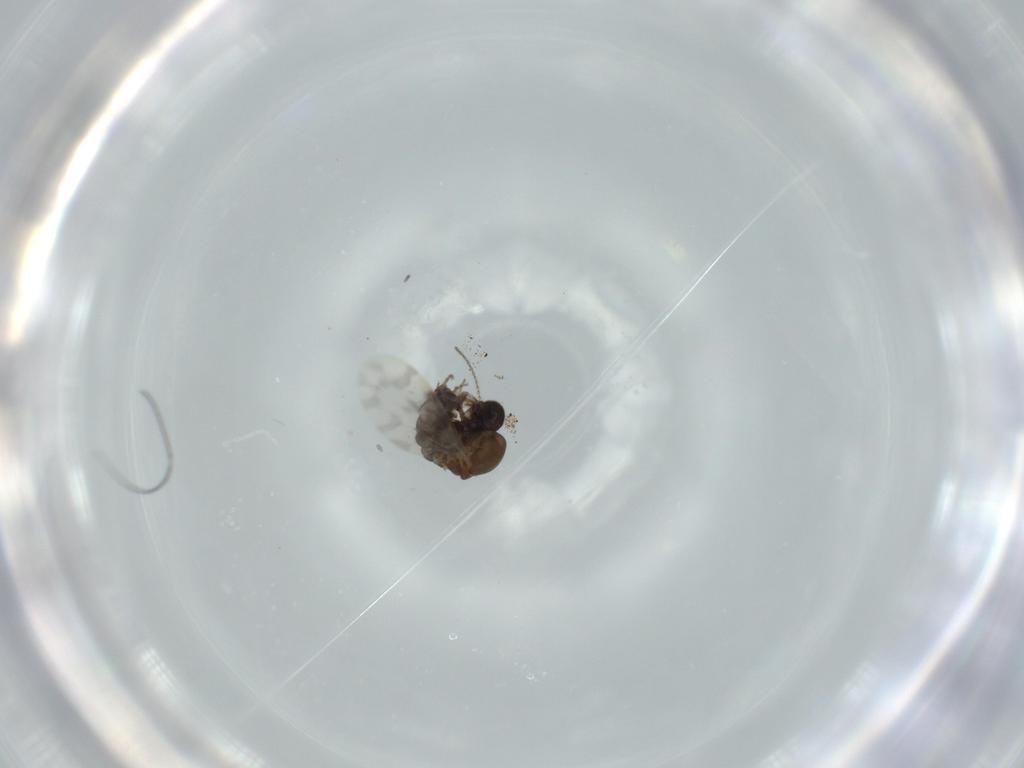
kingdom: Animalia
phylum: Arthropoda
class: Insecta
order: Diptera
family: Ceratopogonidae
